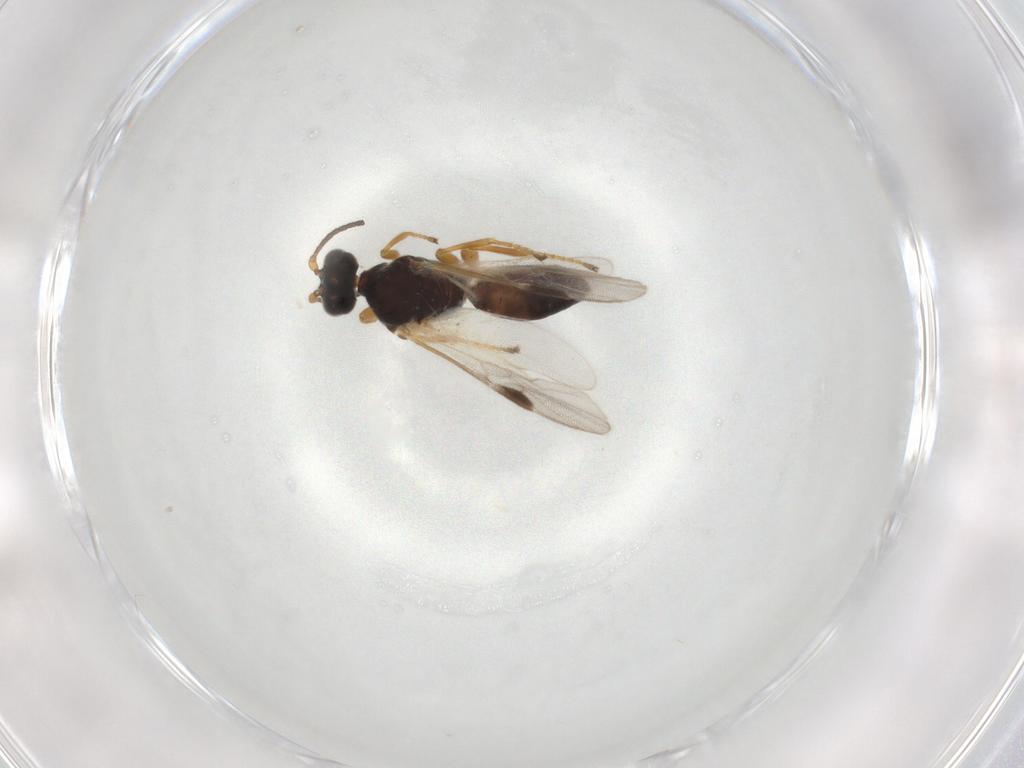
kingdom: Animalia
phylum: Arthropoda
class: Insecta
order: Hymenoptera
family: Braconidae
